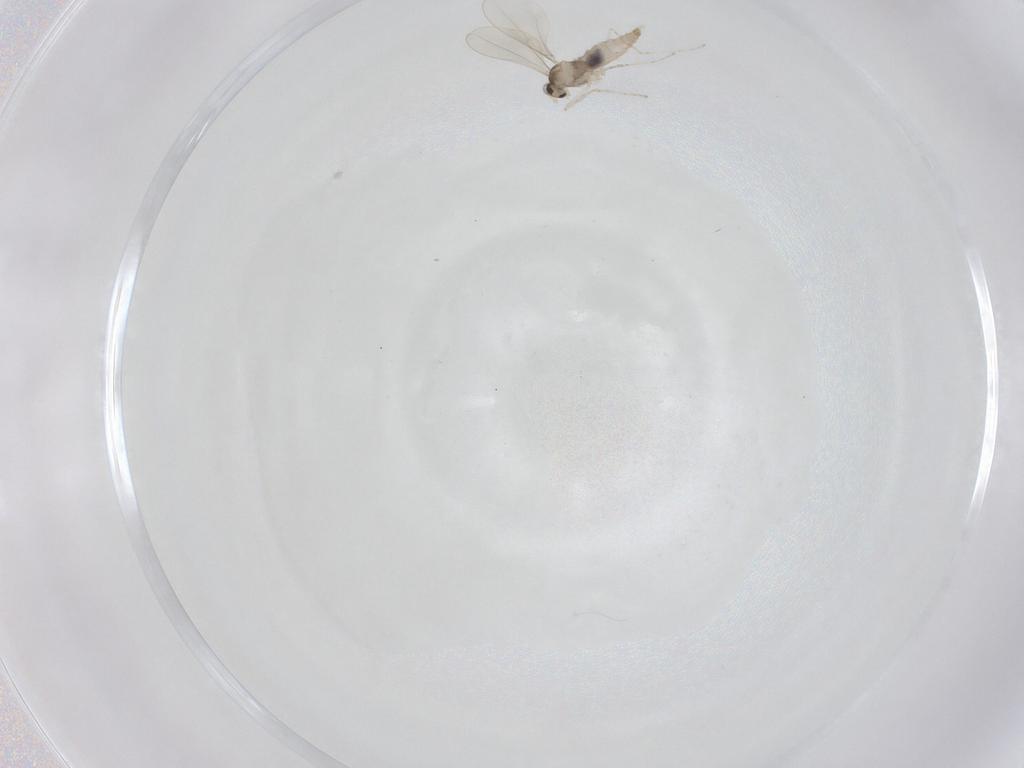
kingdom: Animalia
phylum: Arthropoda
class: Insecta
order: Diptera
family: Cecidomyiidae
